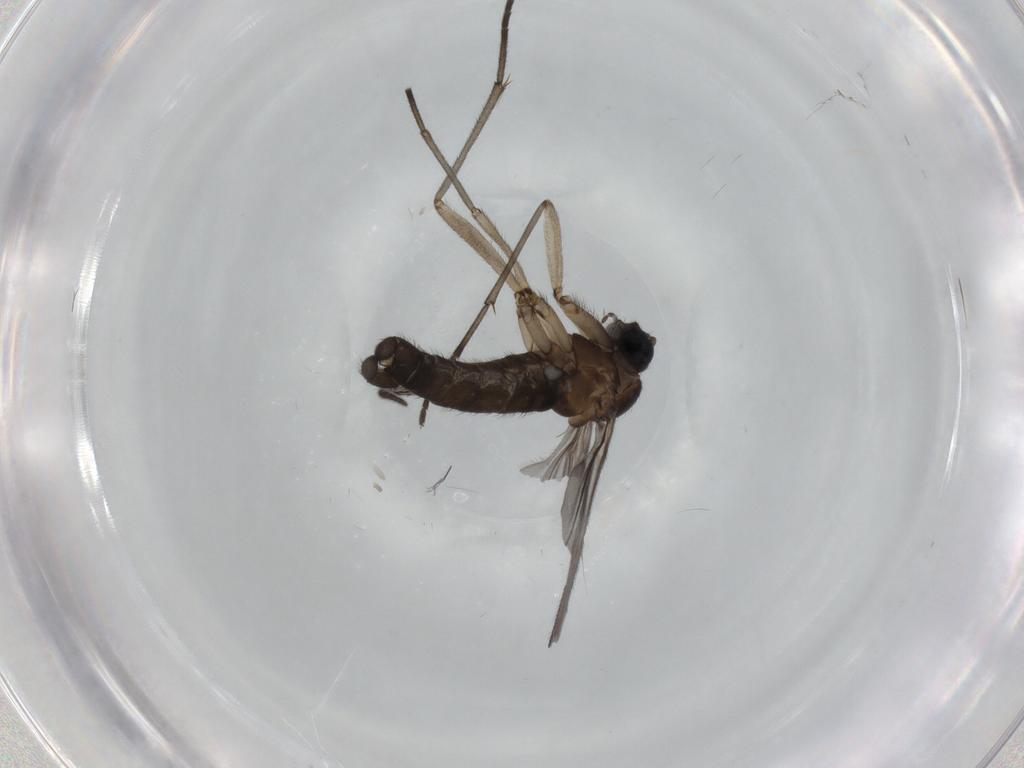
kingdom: Animalia
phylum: Arthropoda
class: Insecta
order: Diptera
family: Sciaridae
